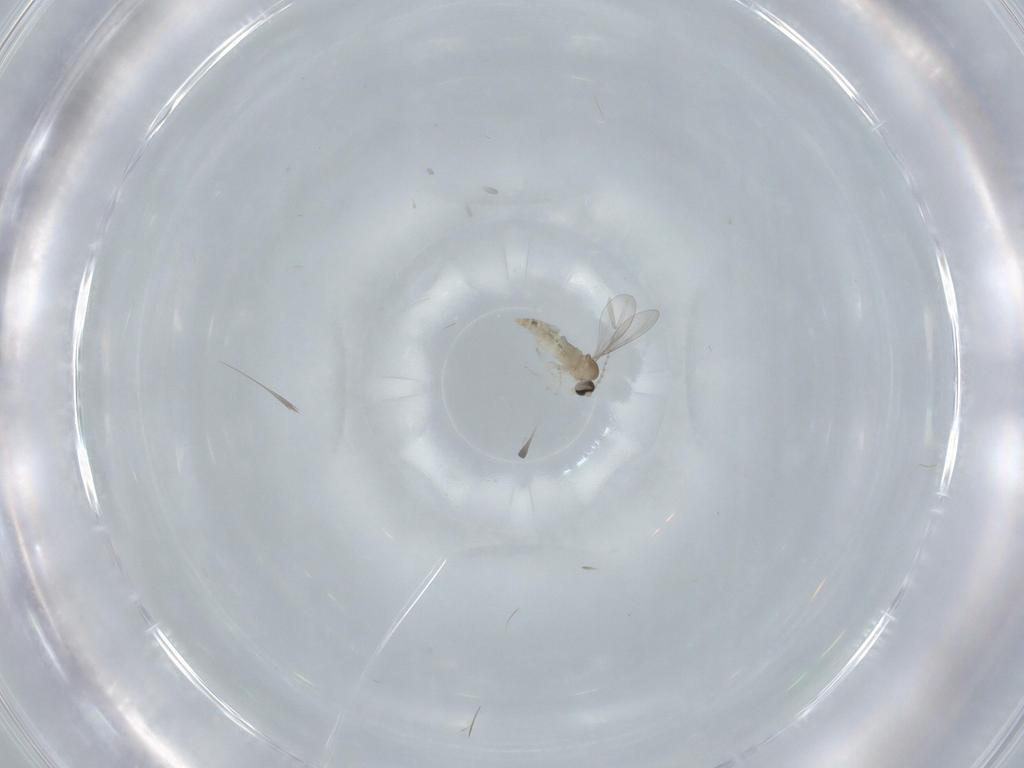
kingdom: Animalia
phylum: Arthropoda
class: Insecta
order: Diptera
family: Cecidomyiidae
